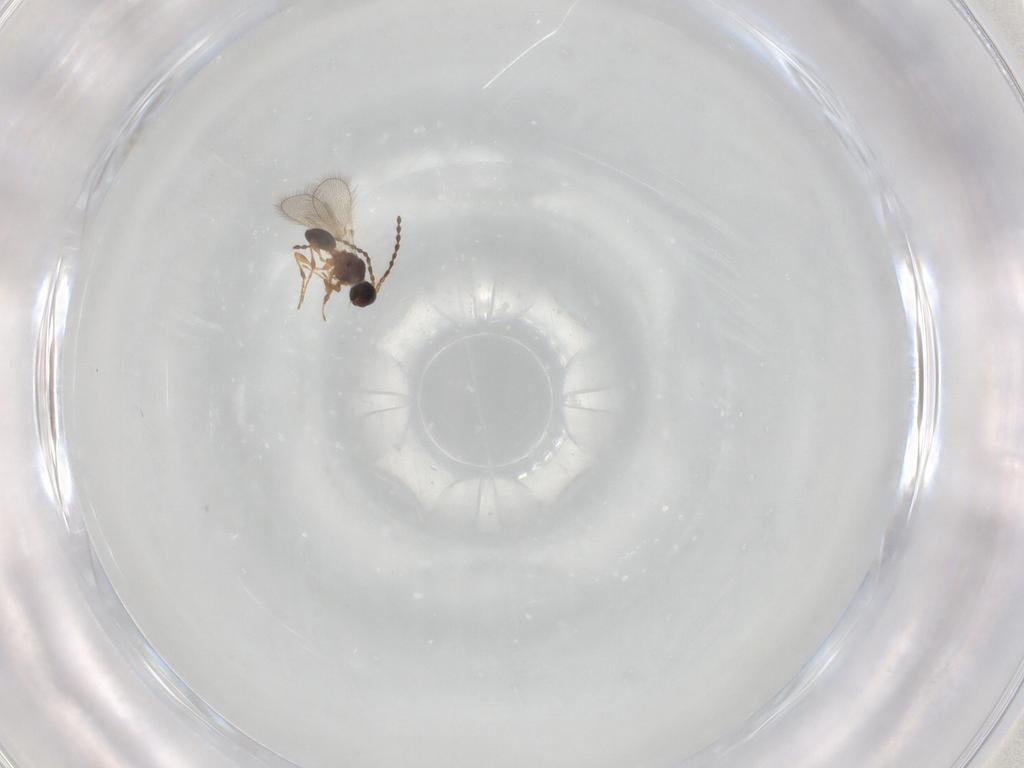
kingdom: Animalia
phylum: Arthropoda
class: Insecta
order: Hymenoptera
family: Diapriidae
